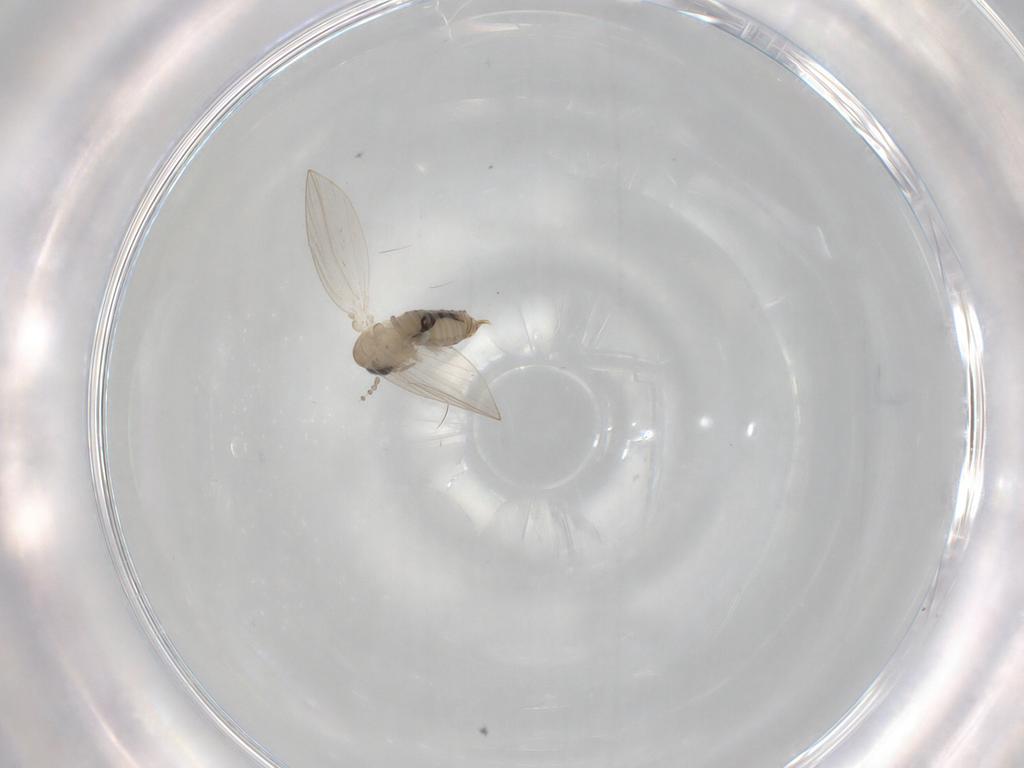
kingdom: Animalia
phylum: Arthropoda
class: Insecta
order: Diptera
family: Psychodidae
